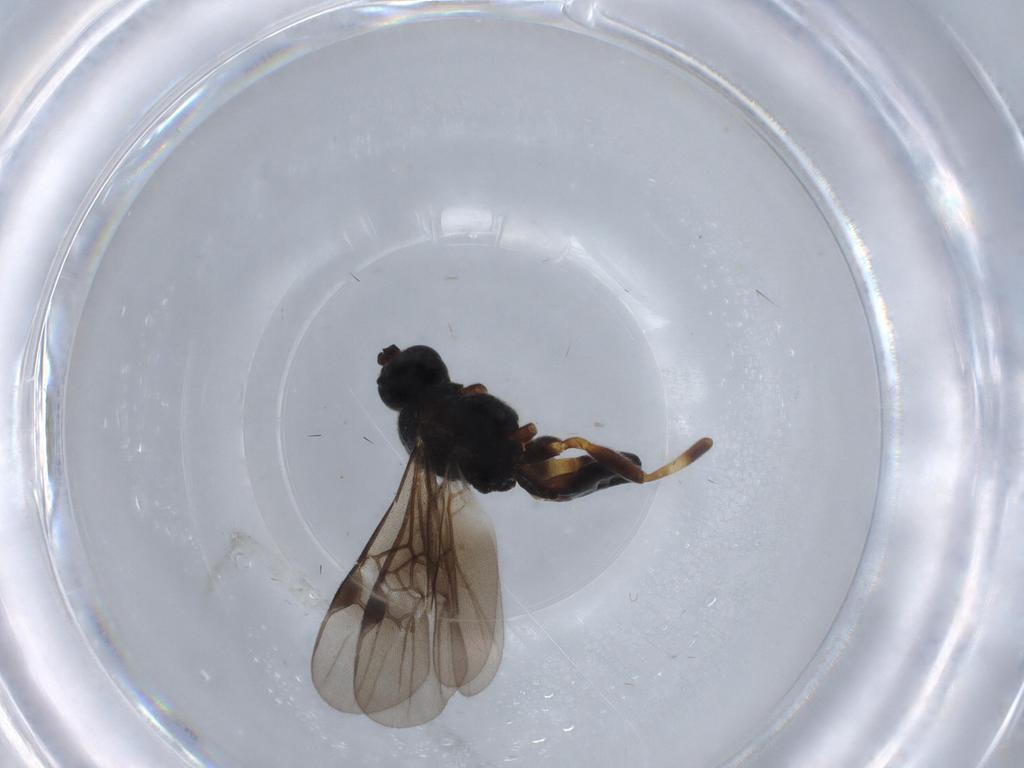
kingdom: Animalia
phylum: Arthropoda
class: Insecta
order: Hymenoptera
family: Braconidae
